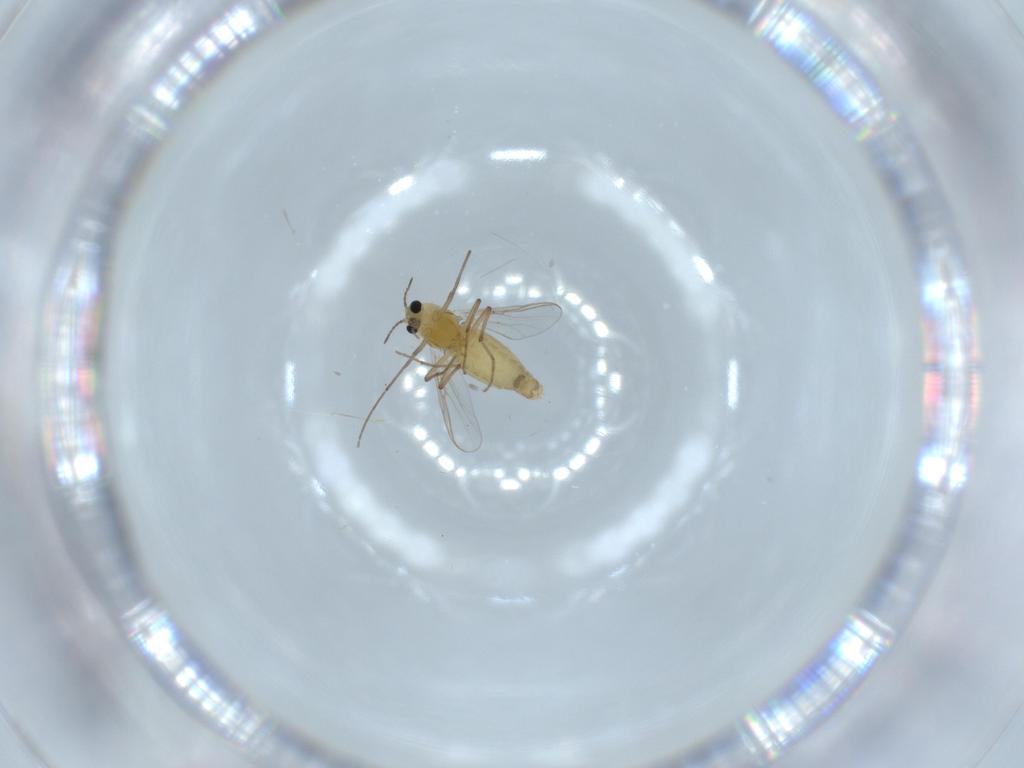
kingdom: Animalia
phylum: Arthropoda
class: Insecta
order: Diptera
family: Chironomidae
